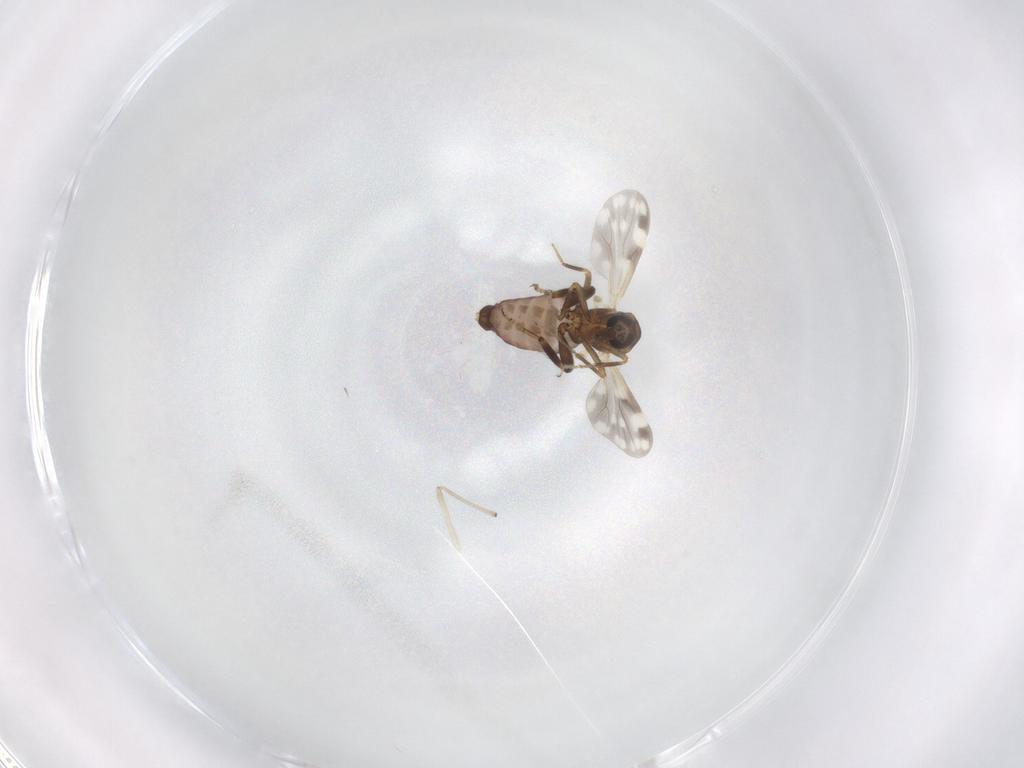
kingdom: Animalia
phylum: Arthropoda
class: Insecta
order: Diptera
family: Ceratopogonidae
